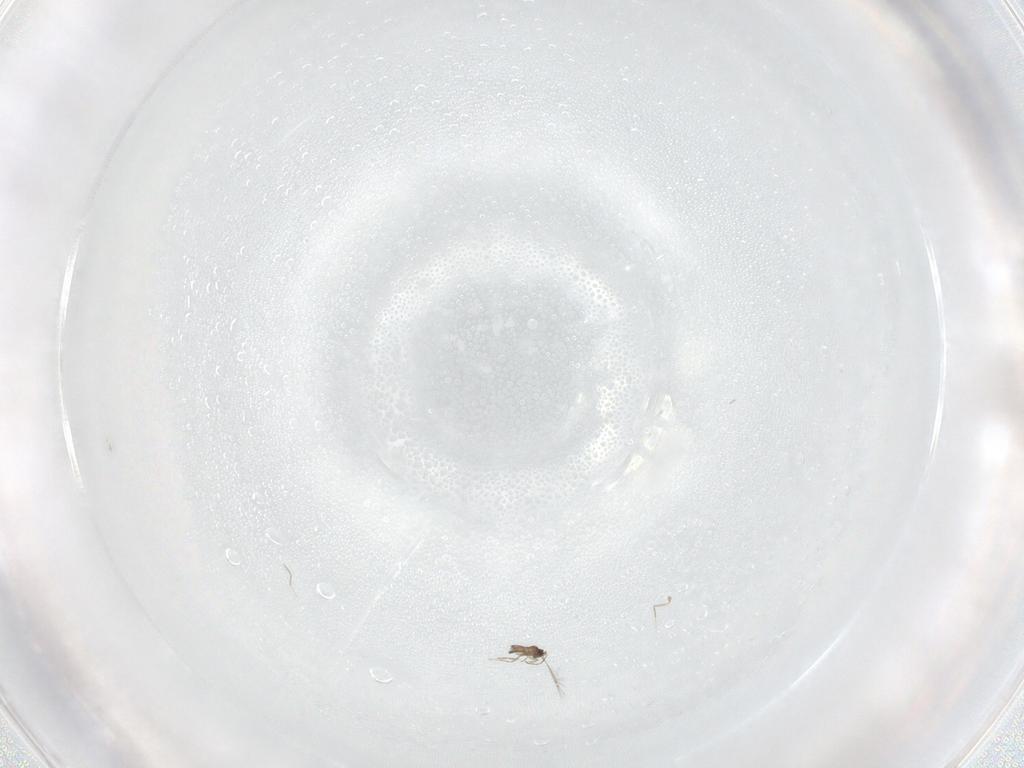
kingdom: Animalia
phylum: Arthropoda
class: Insecta
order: Hymenoptera
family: Mymaridae
